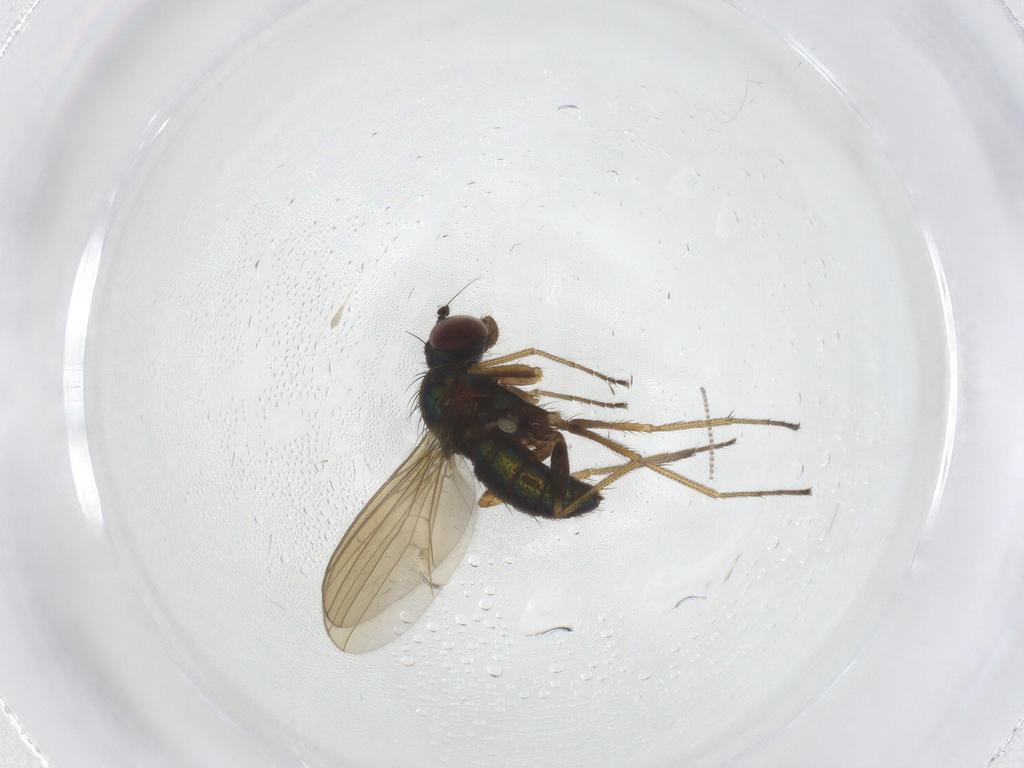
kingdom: Animalia
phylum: Arthropoda
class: Insecta
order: Diptera
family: Dolichopodidae
